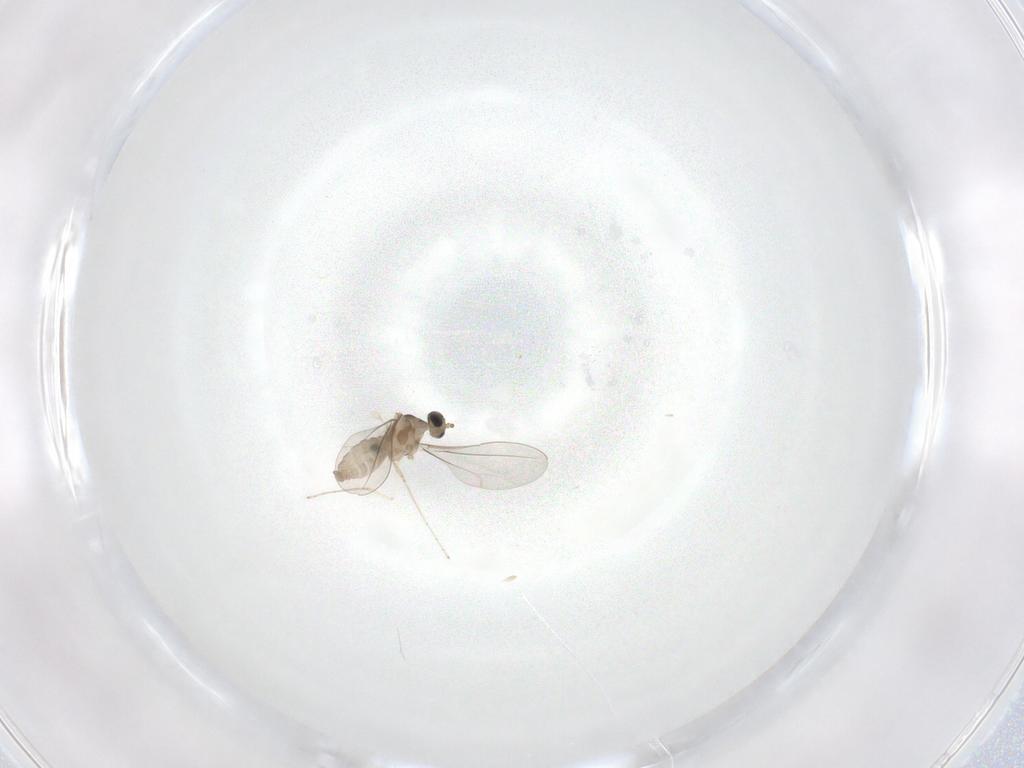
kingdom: Animalia
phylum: Arthropoda
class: Insecta
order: Diptera
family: Cecidomyiidae
